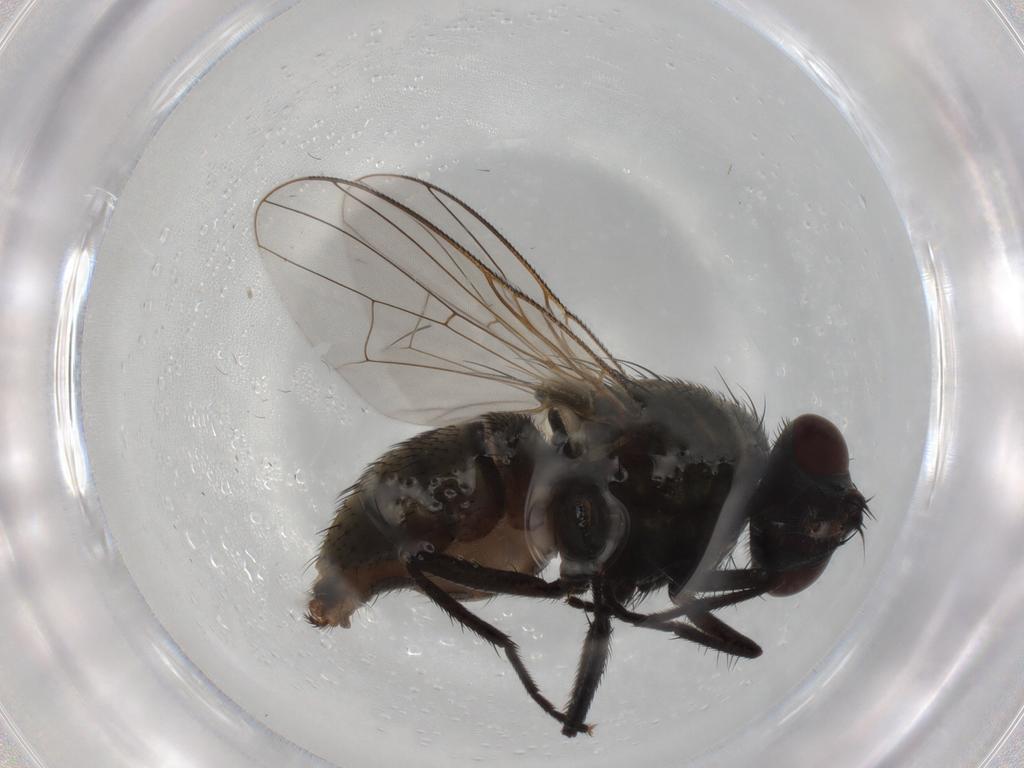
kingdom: Animalia
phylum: Arthropoda
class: Insecta
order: Diptera
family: Muscidae
